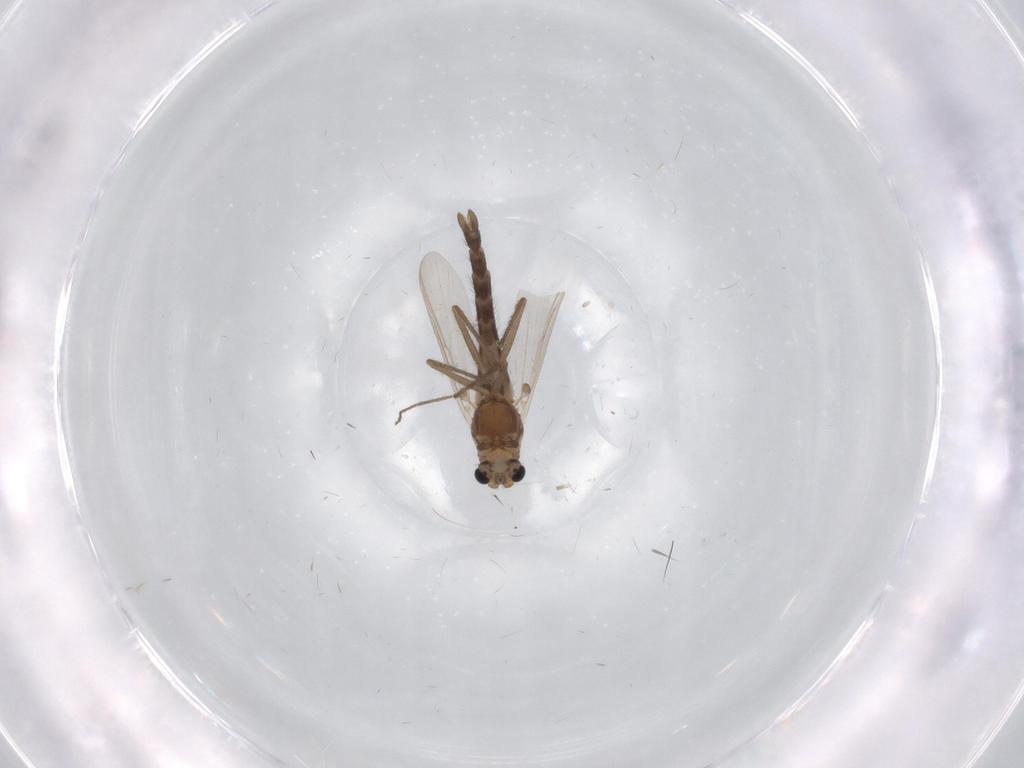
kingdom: Animalia
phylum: Arthropoda
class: Insecta
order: Diptera
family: Chironomidae
